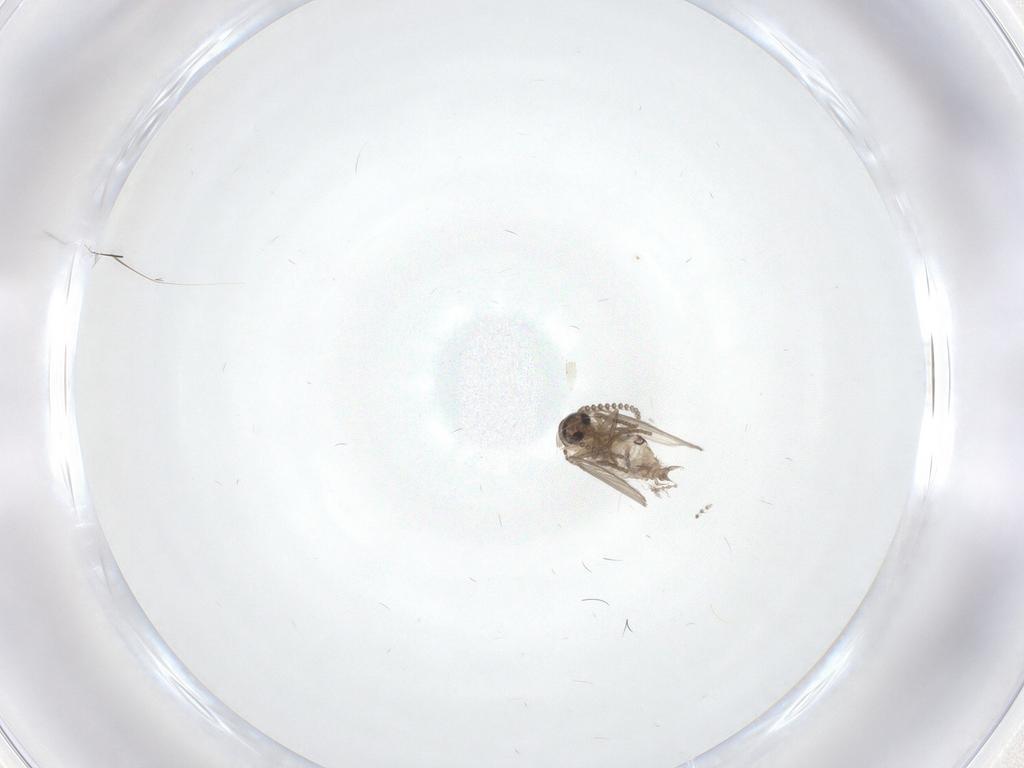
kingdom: Animalia
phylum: Arthropoda
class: Insecta
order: Diptera
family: Psychodidae
